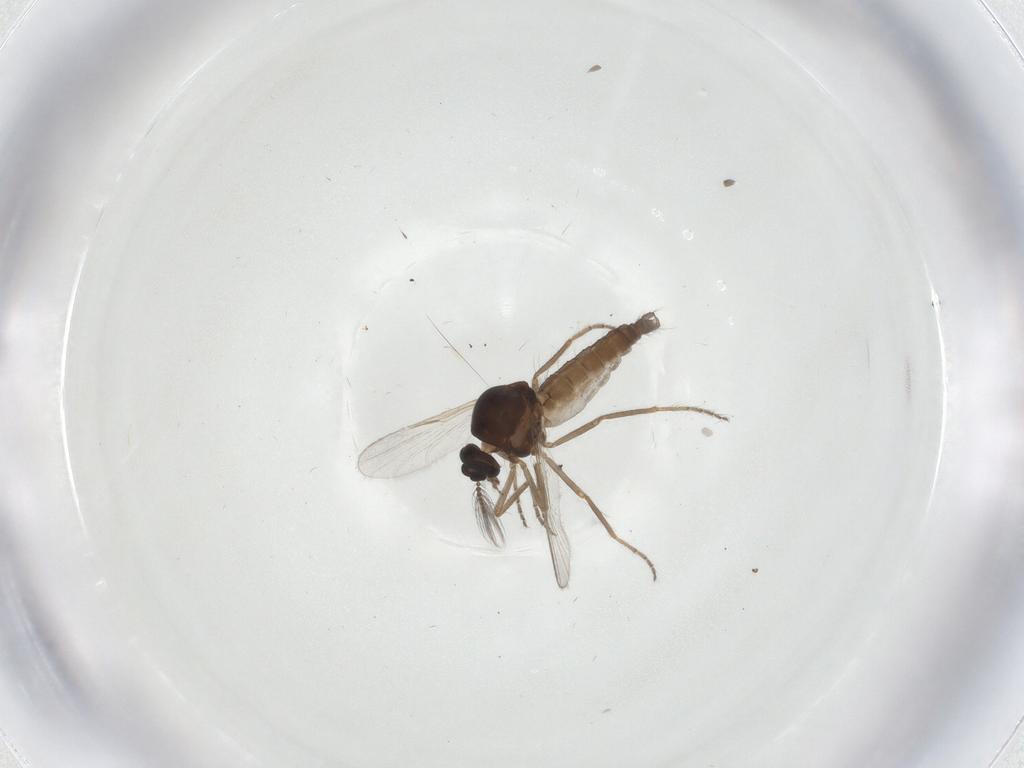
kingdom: Animalia
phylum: Arthropoda
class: Insecta
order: Diptera
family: Ceratopogonidae
